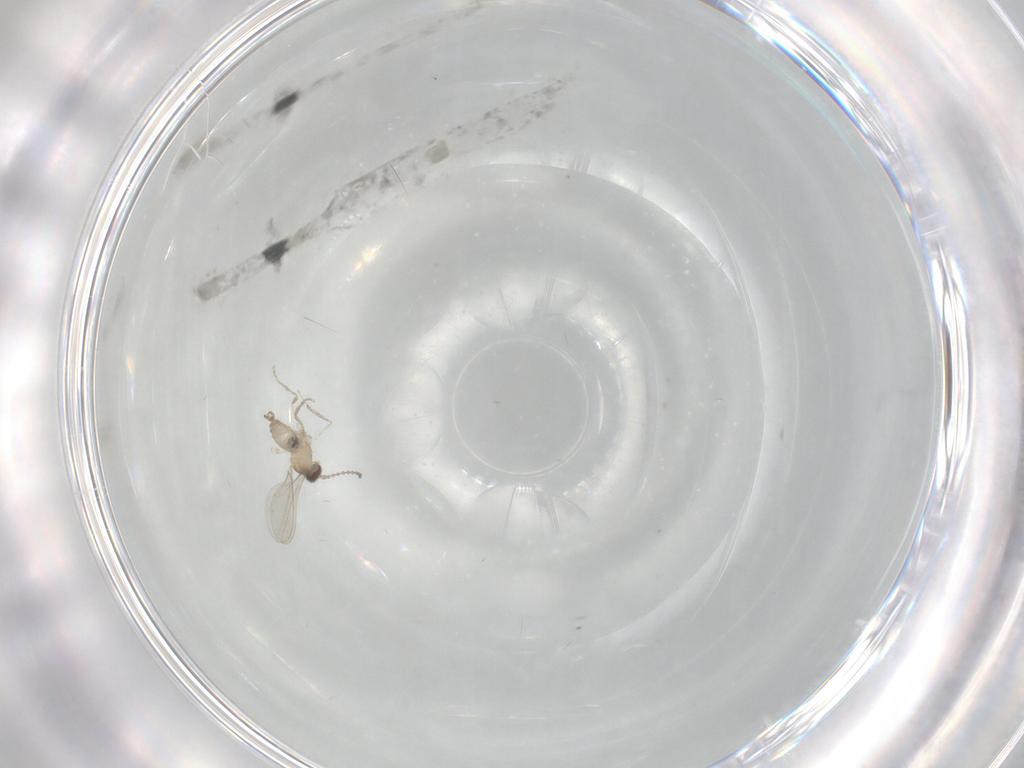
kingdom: Animalia
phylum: Arthropoda
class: Insecta
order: Diptera
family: Cecidomyiidae
